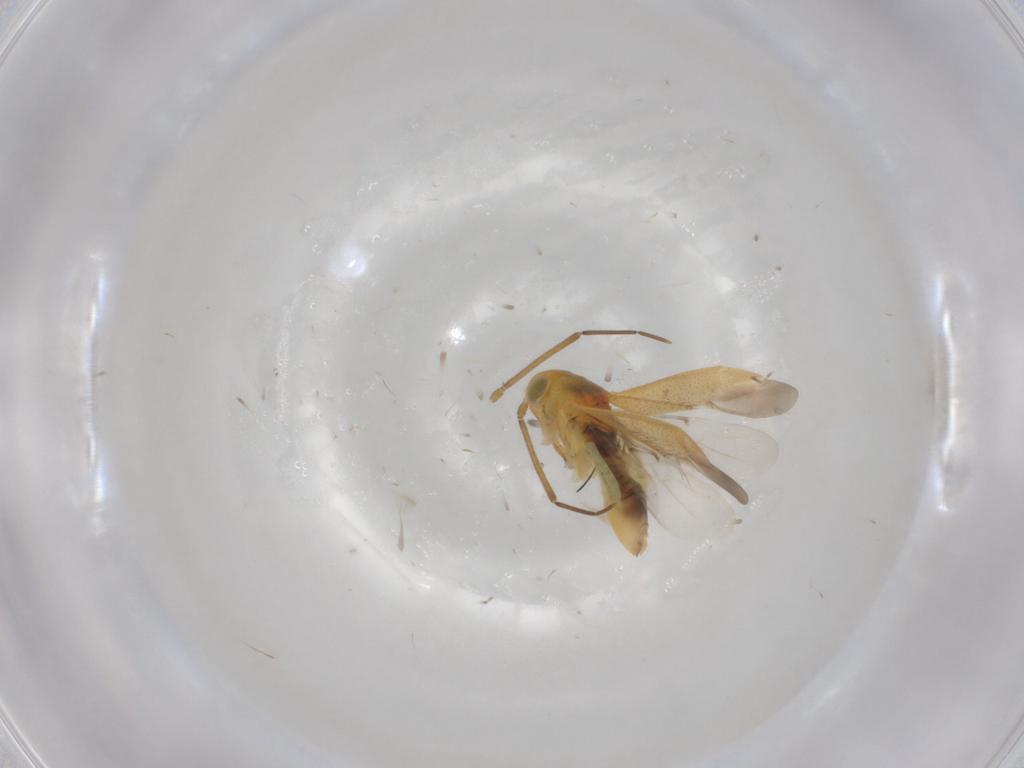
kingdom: Animalia
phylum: Arthropoda
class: Insecta
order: Hemiptera
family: Miridae
